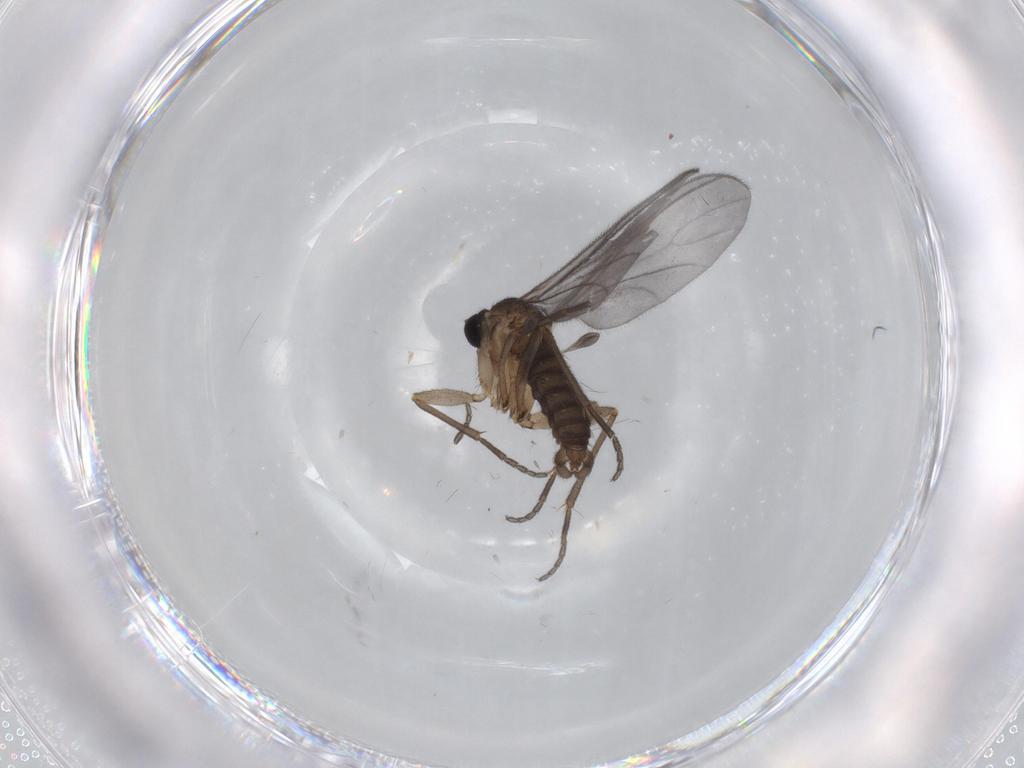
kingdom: Animalia
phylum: Arthropoda
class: Insecta
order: Diptera
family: Sciaridae
